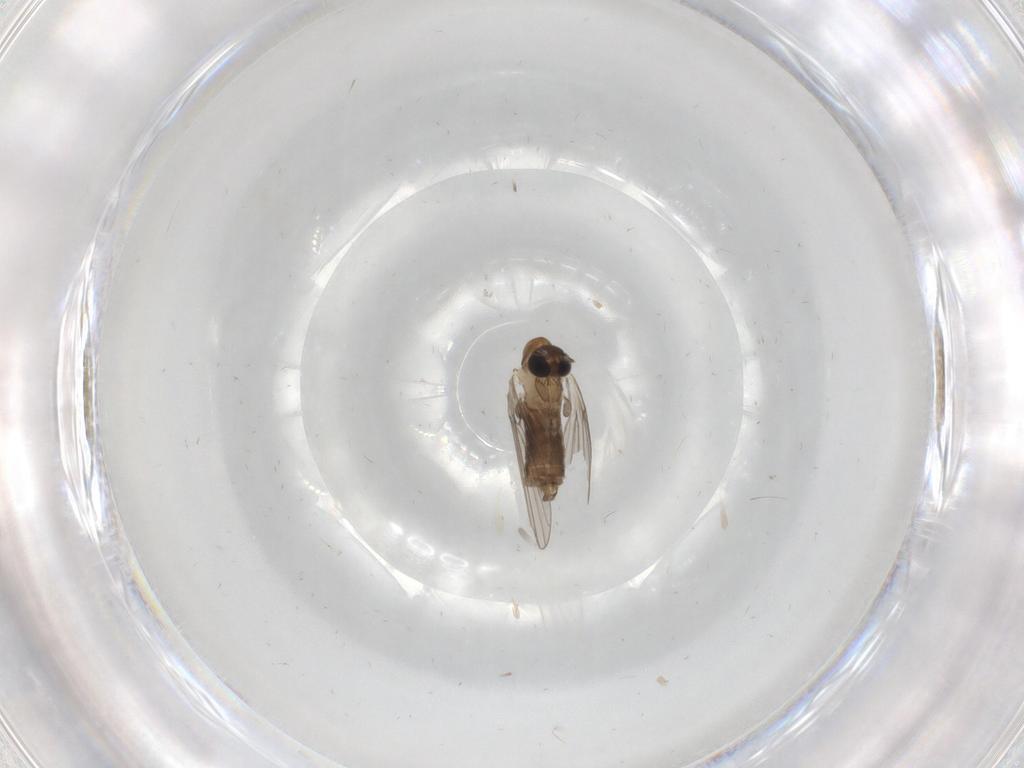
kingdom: Animalia
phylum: Arthropoda
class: Insecta
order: Diptera
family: Psychodidae
